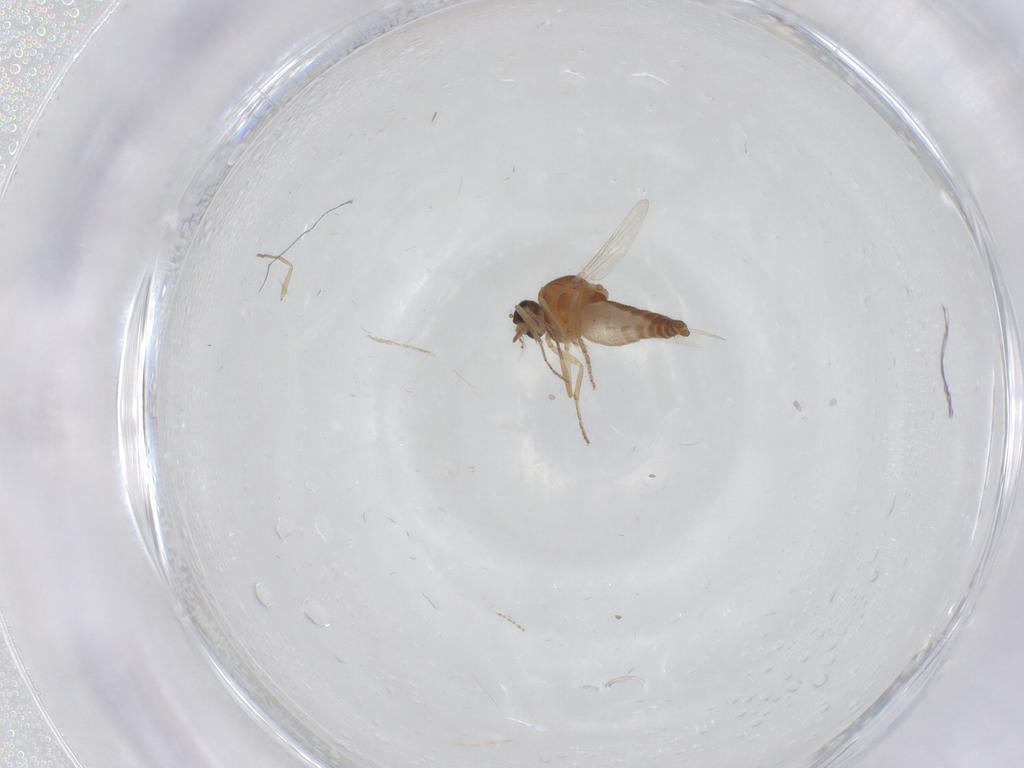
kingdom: Animalia
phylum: Arthropoda
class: Insecta
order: Diptera
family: Ceratopogonidae
